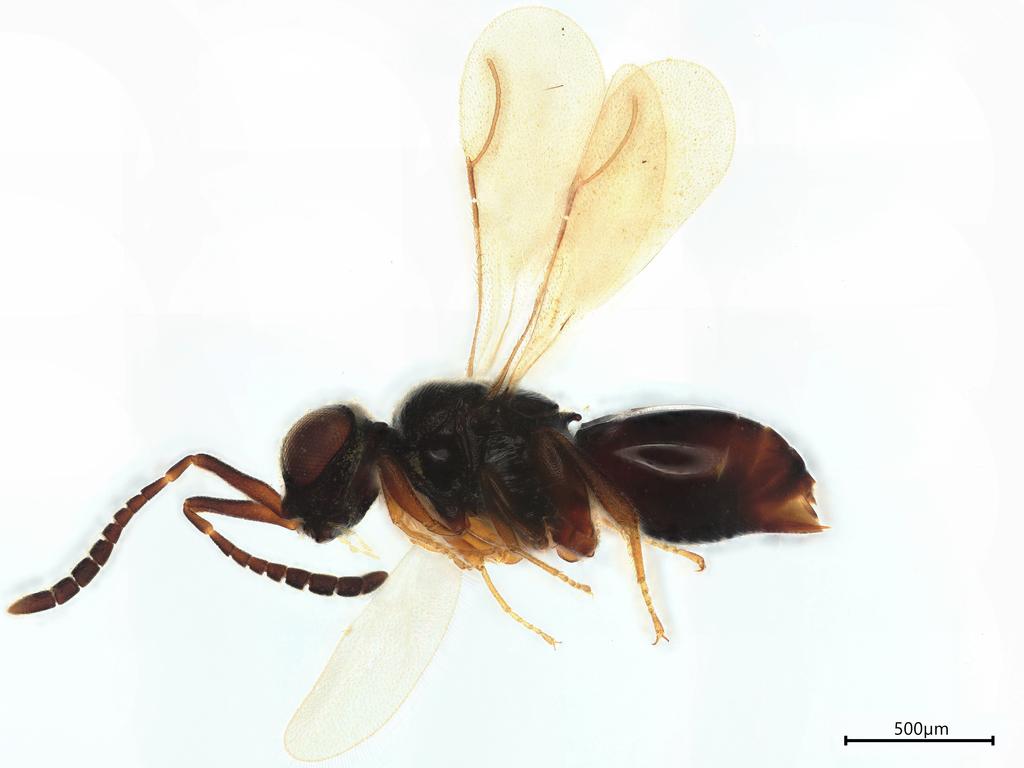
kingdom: Animalia
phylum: Arthropoda
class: Insecta
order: Hymenoptera
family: Ceraphronidae
